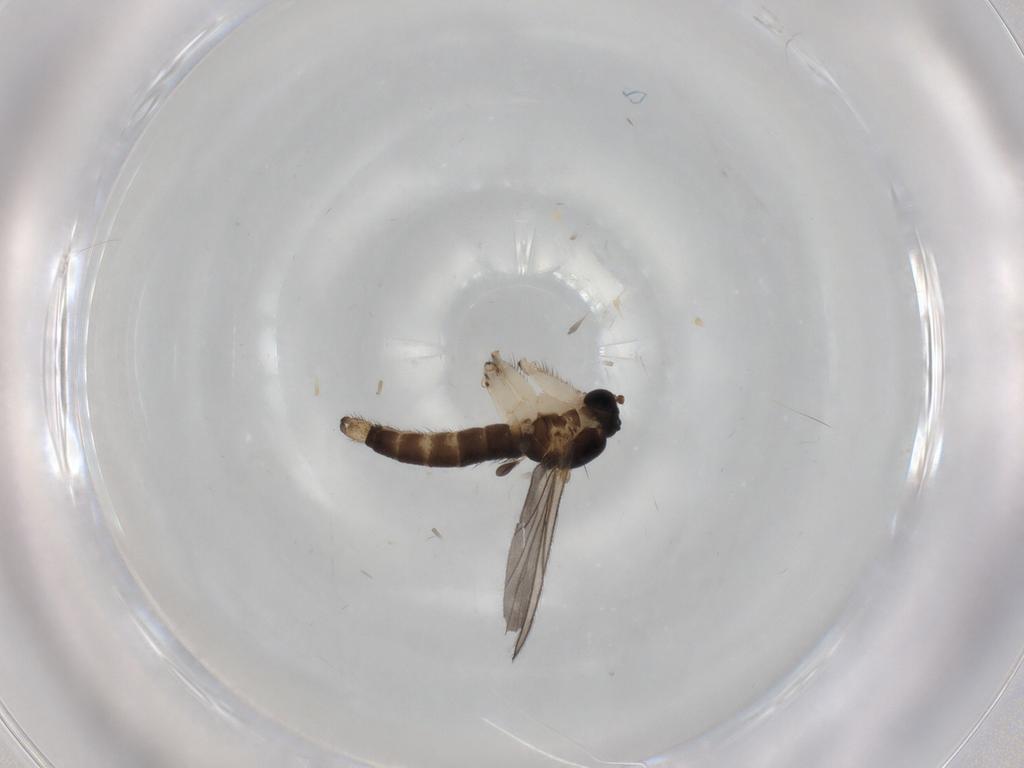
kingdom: Animalia
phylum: Arthropoda
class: Insecta
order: Diptera
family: Sciaridae
